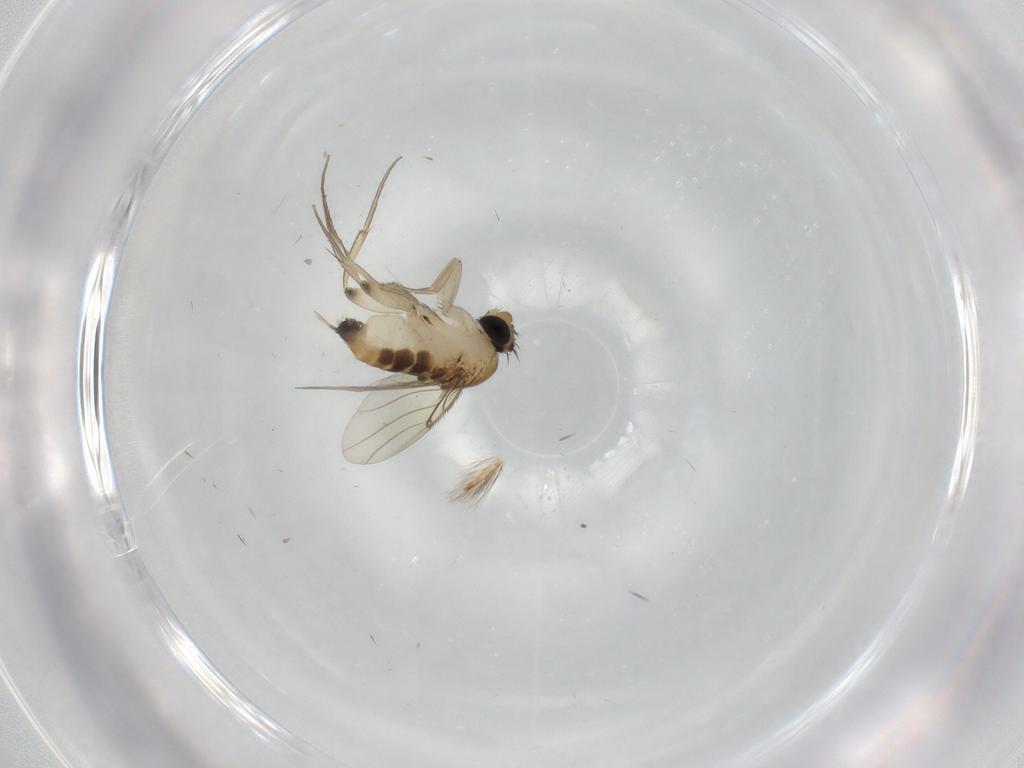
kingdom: Animalia
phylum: Arthropoda
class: Insecta
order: Diptera
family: Phoridae
